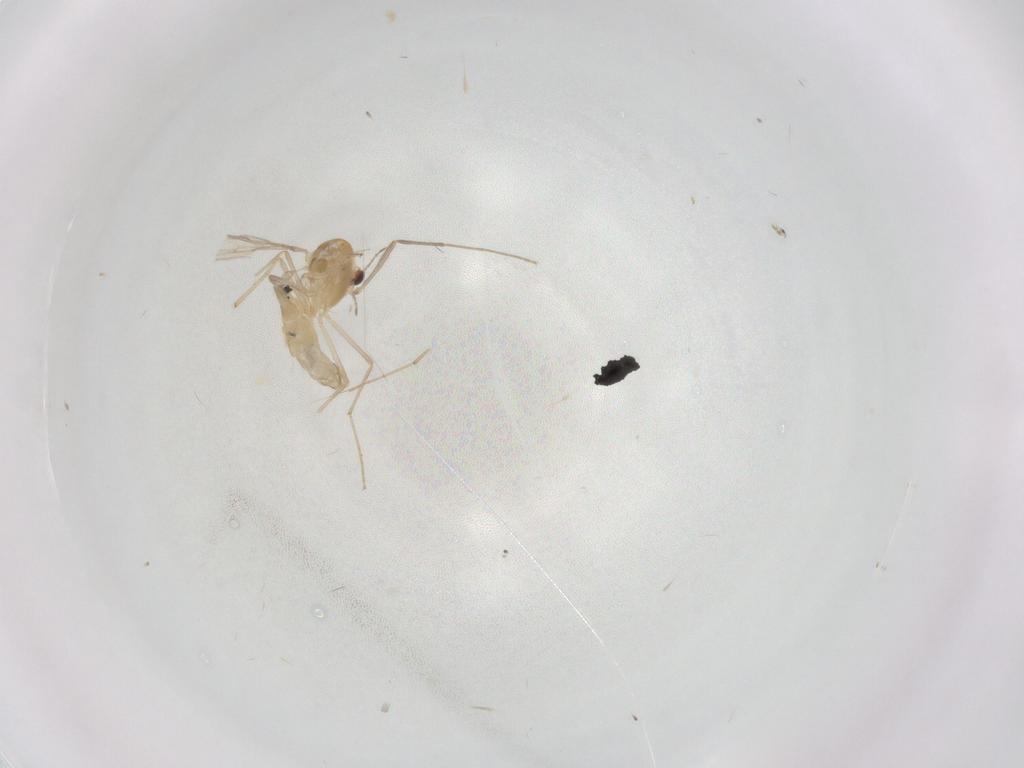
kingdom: Animalia
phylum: Arthropoda
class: Insecta
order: Diptera
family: Chironomidae
